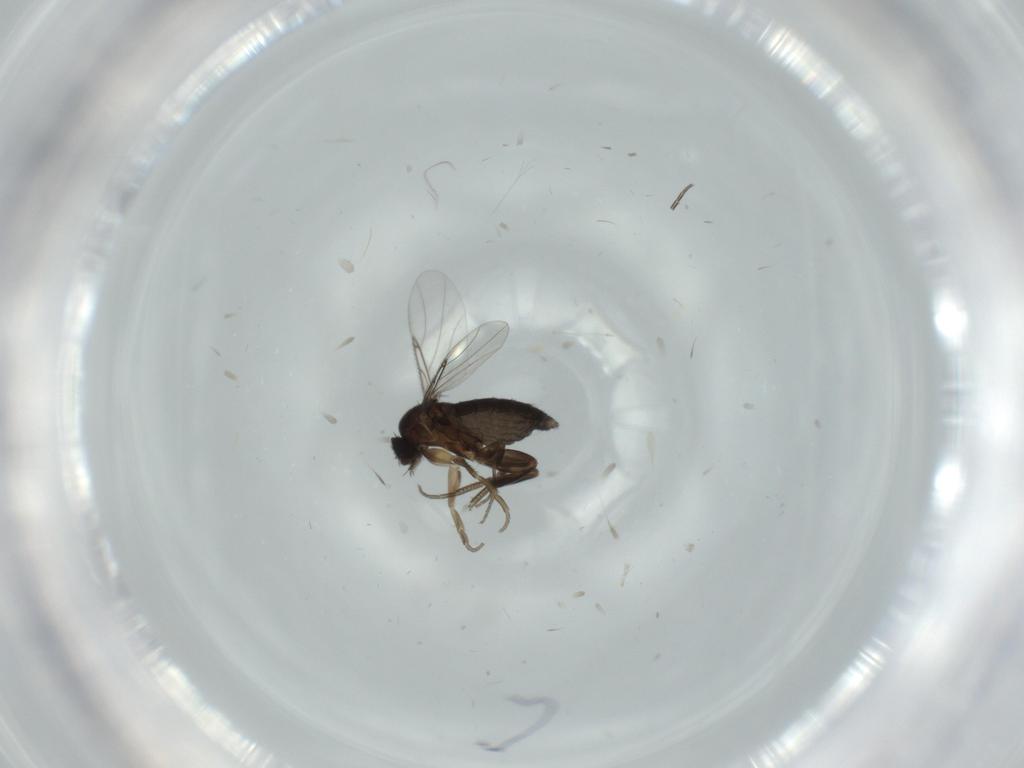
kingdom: Animalia
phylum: Arthropoda
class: Insecta
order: Diptera
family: Phoridae
